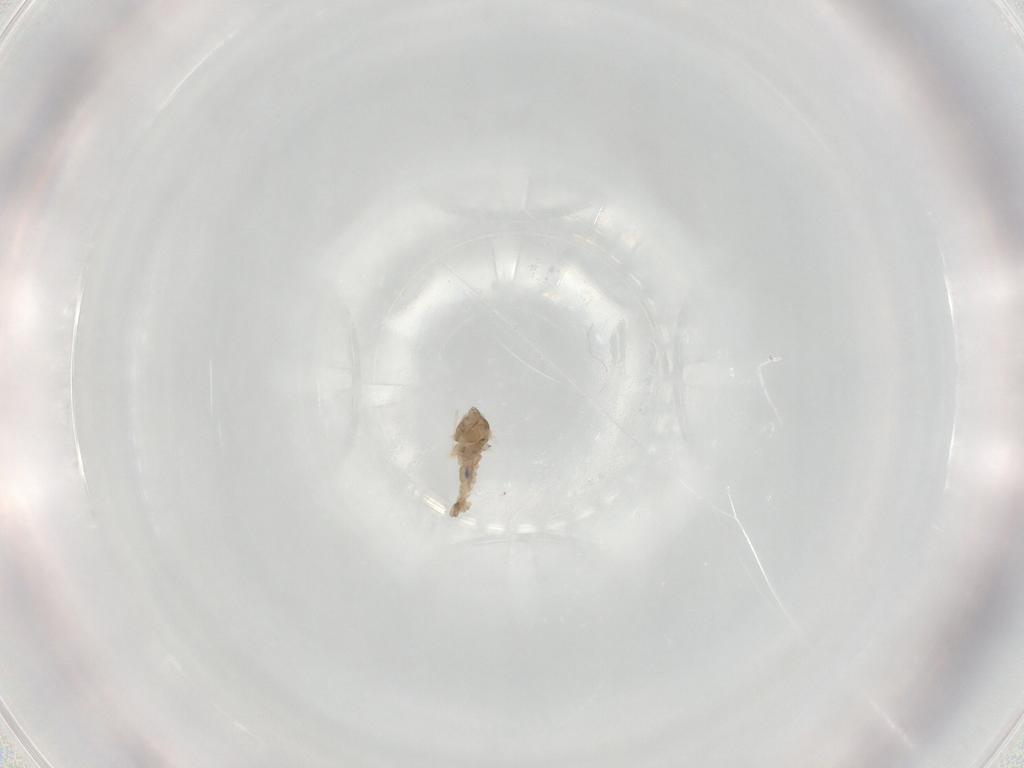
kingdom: Animalia
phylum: Arthropoda
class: Insecta
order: Diptera
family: Cecidomyiidae
